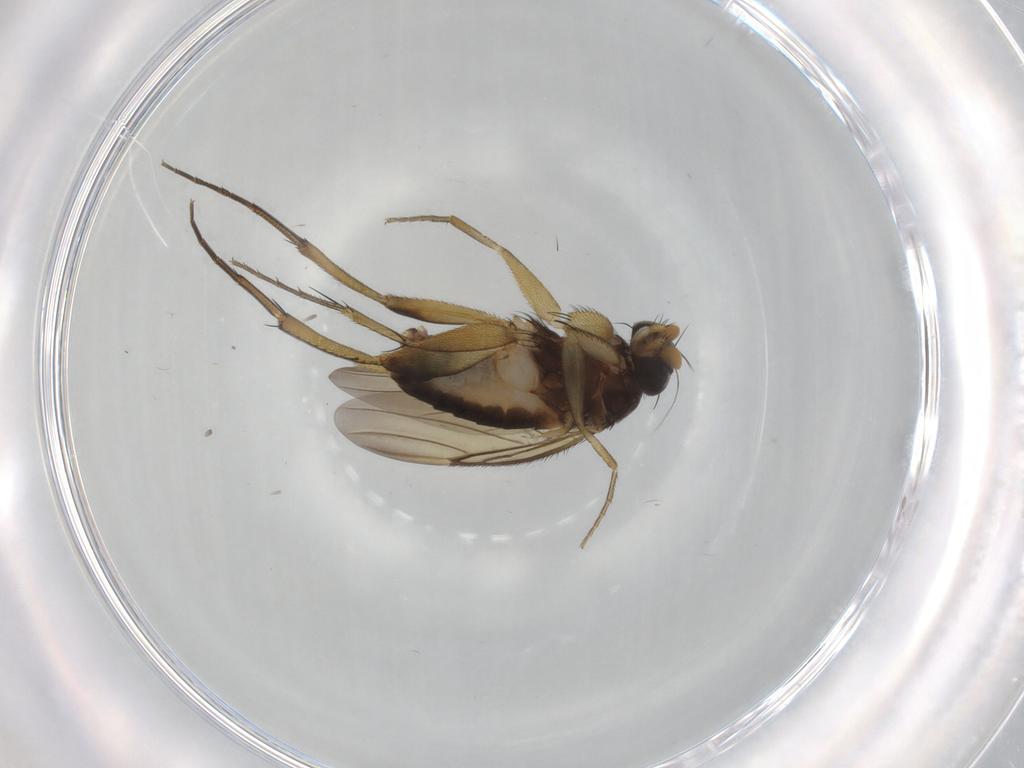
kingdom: Animalia
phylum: Arthropoda
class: Insecta
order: Diptera
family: Phoridae
